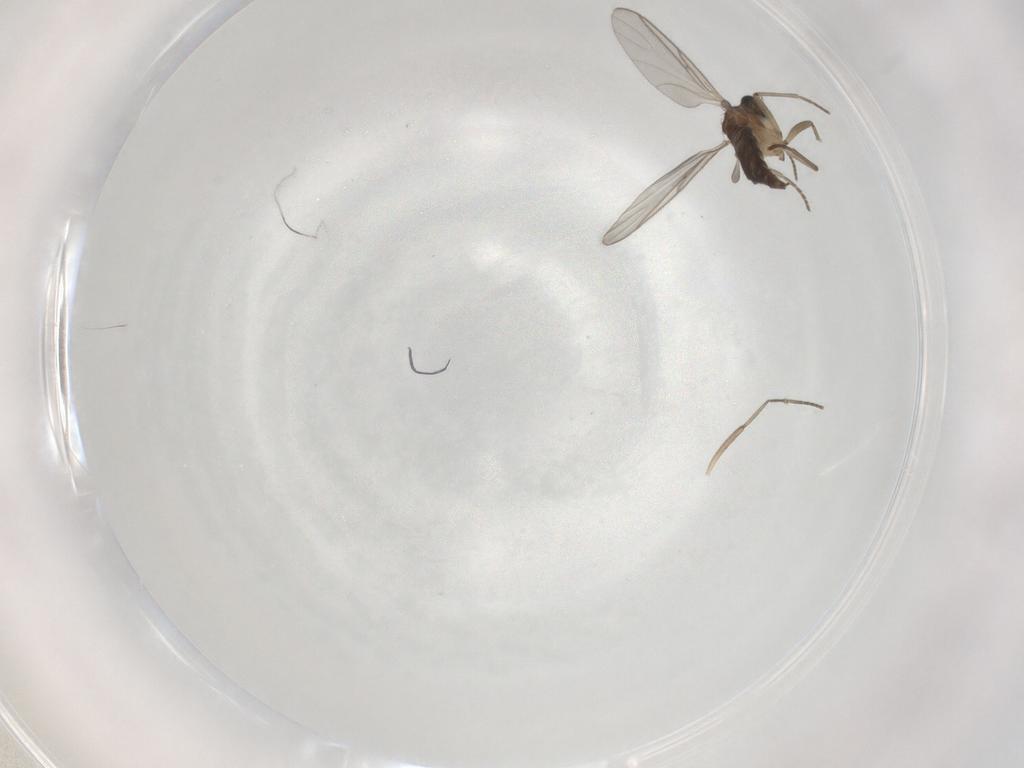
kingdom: Animalia
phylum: Arthropoda
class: Insecta
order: Diptera
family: Sciaridae
